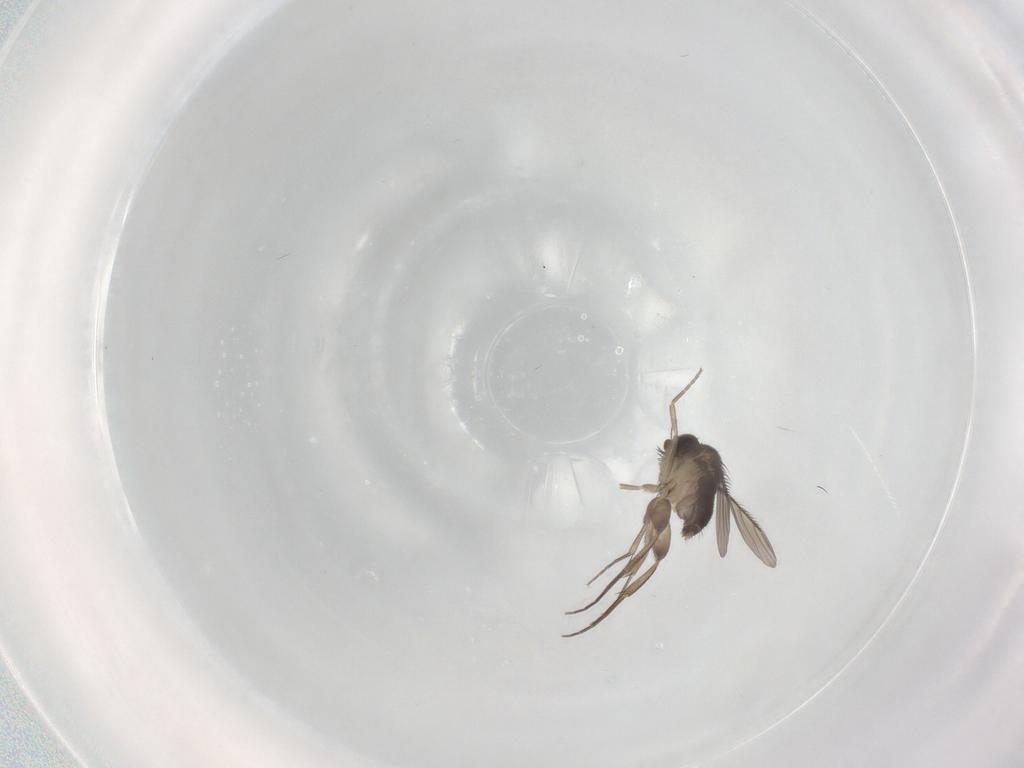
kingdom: Animalia
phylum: Arthropoda
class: Insecta
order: Diptera
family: Phoridae
